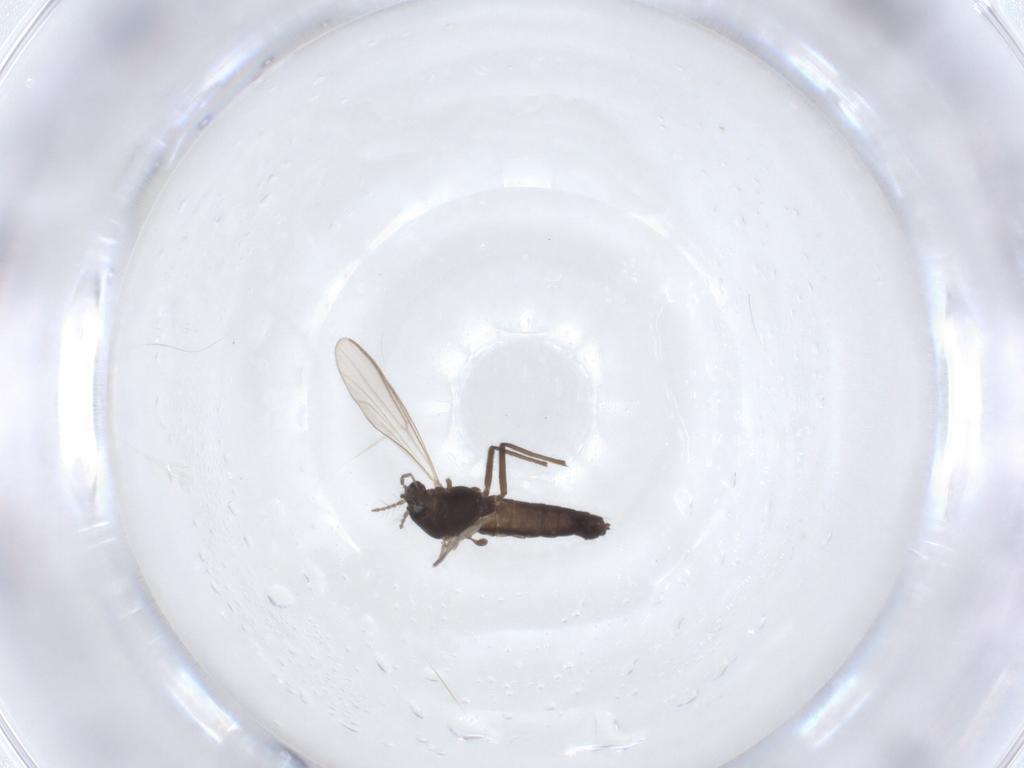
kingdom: Animalia
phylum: Arthropoda
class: Insecta
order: Diptera
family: Chironomidae
